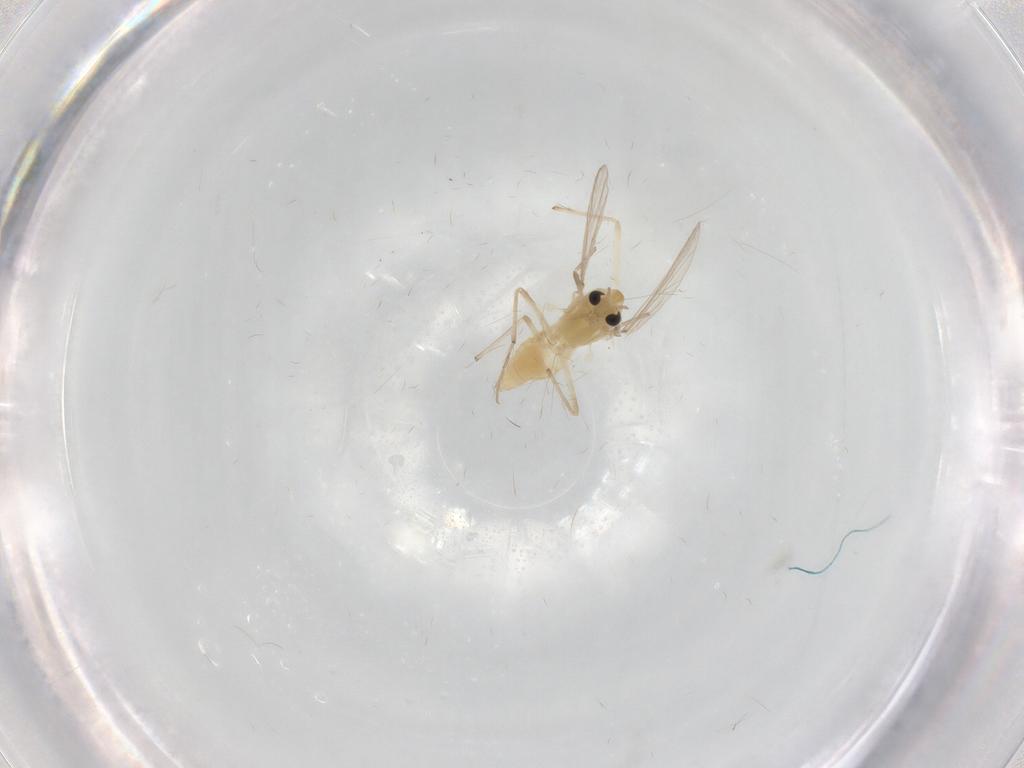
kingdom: Animalia
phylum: Arthropoda
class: Insecta
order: Diptera
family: Chironomidae
